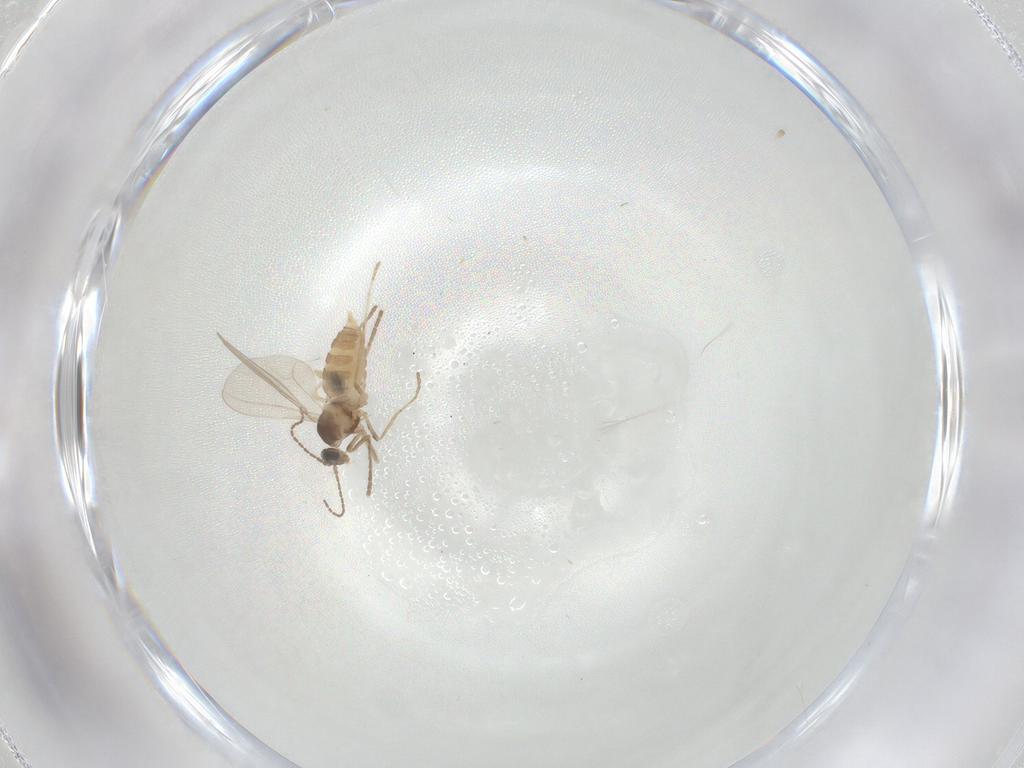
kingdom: Animalia
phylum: Arthropoda
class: Insecta
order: Diptera
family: Cecidomyiidae
